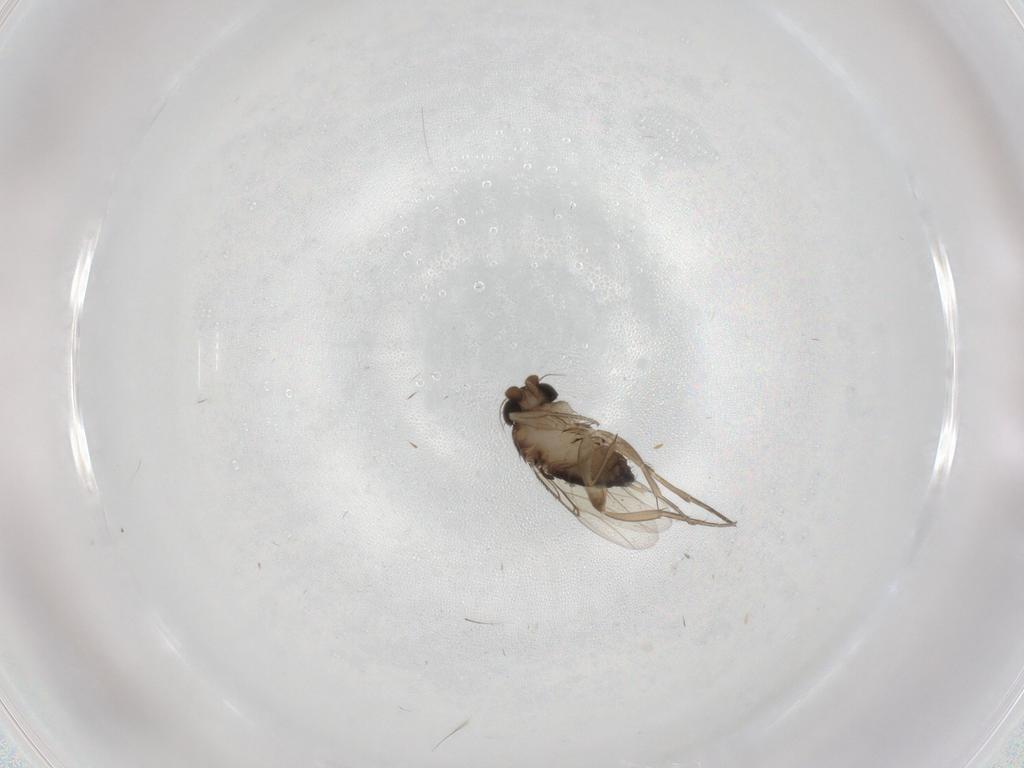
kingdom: Animalia
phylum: Arthropoda
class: Insecta
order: Diptera
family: Phoridae
